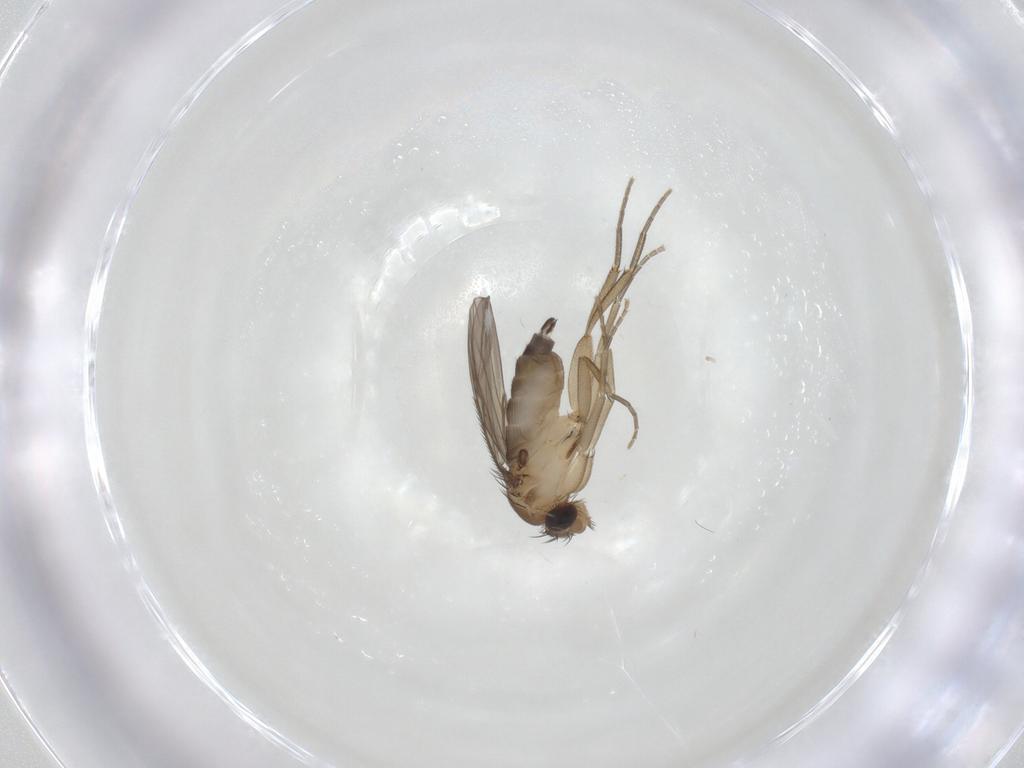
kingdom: Animalia
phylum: Arthropoda
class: Insecta
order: Diptera
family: Phoridae
